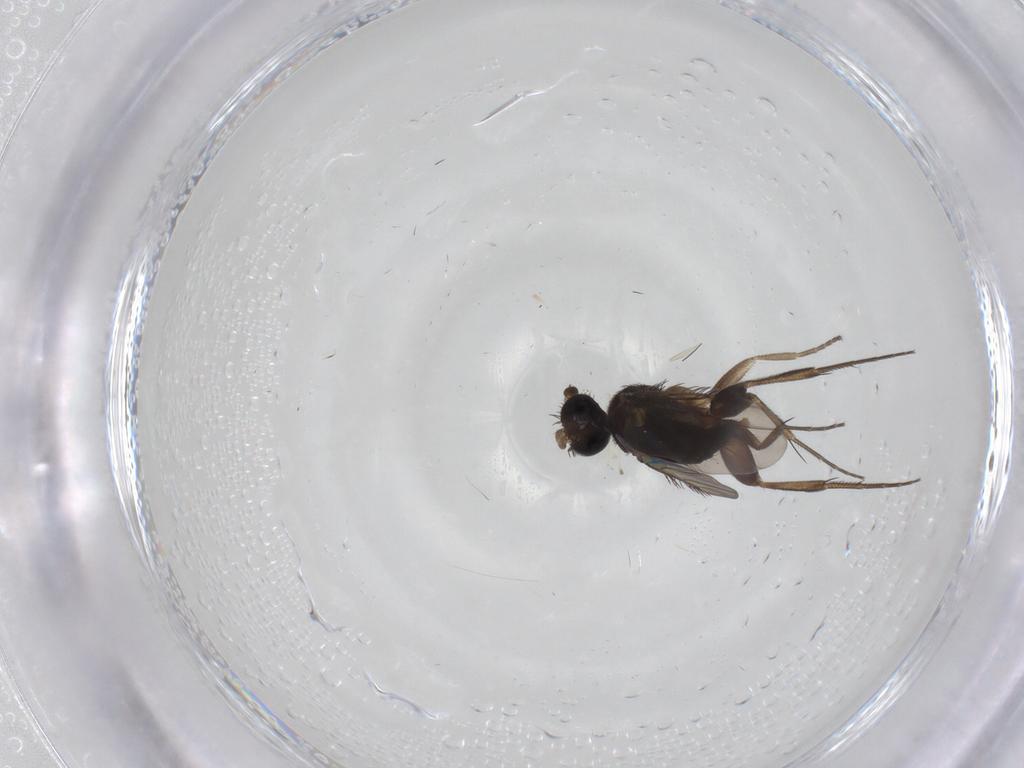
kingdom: Animalia
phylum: Arthropoda
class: Insecta
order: Diptera
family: Phoridae
